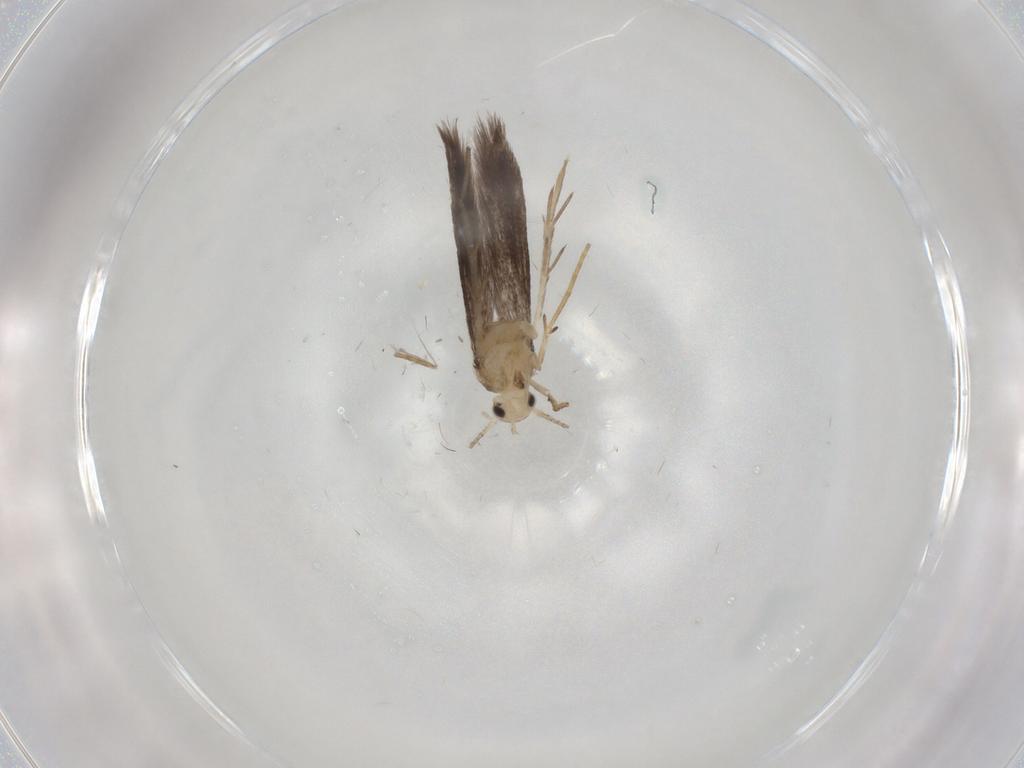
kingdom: Animalia
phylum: Arthropoda
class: Insecta
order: Lepidoptera
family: Schreckensteiniidae
